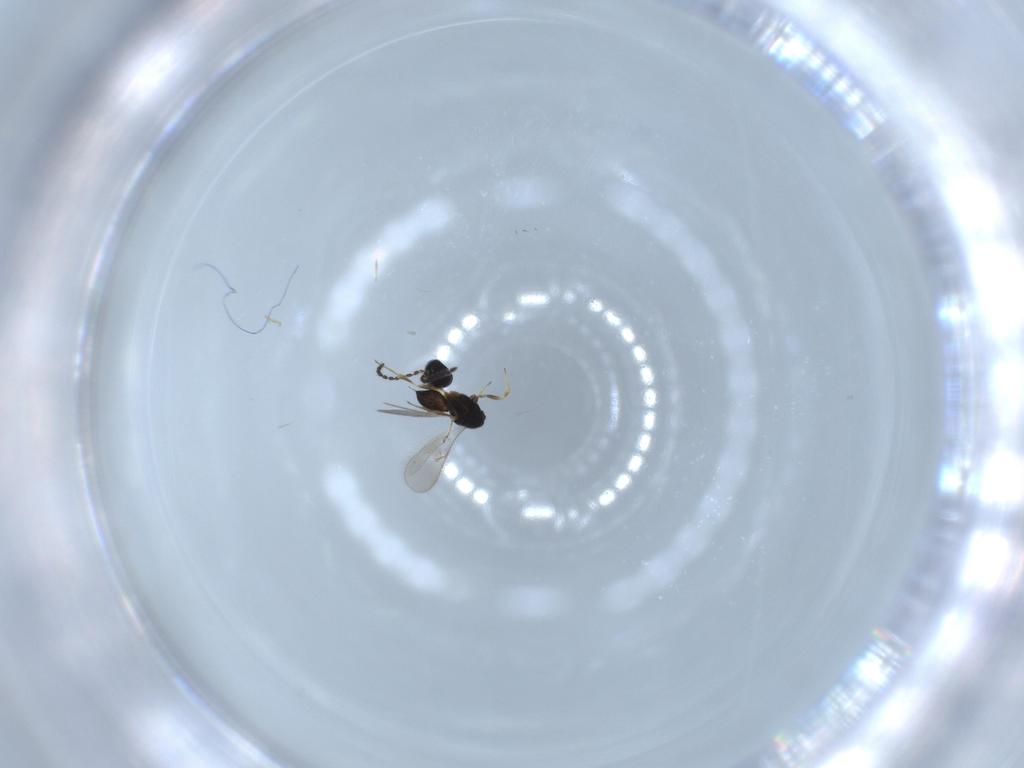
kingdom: Animalia
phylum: Arthropoda
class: Insecta
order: Hymenoptera
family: Scelionidae
